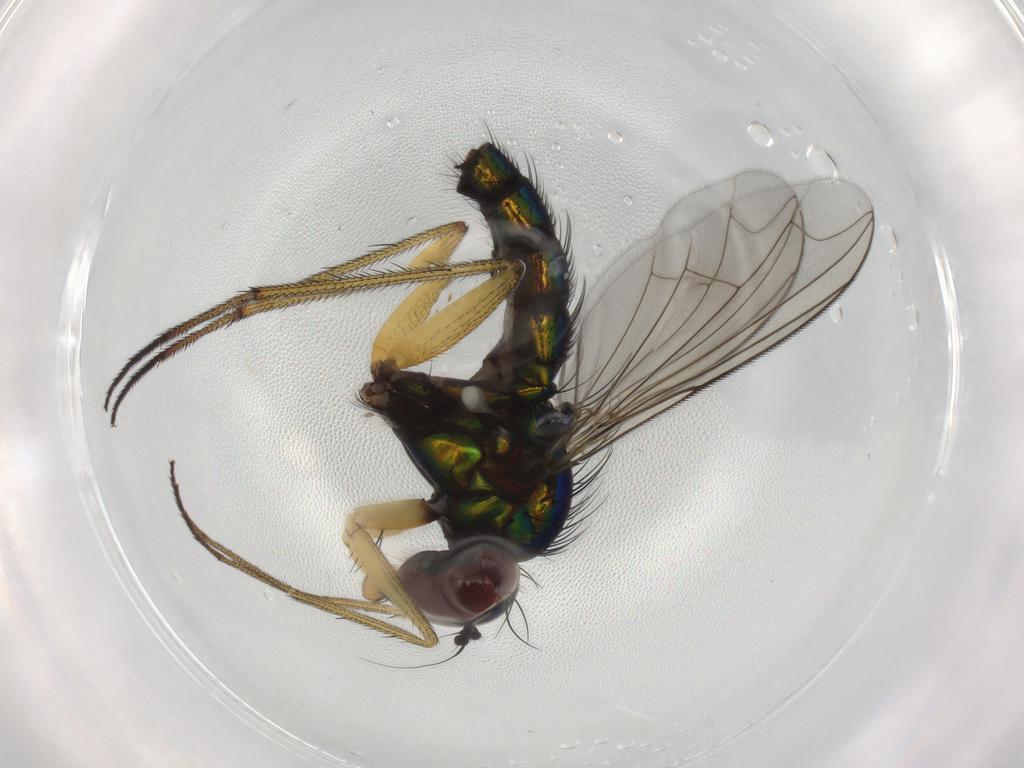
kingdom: Animalia
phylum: Arthropoda
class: Insecta
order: Diptera
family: Dolichopodidae
